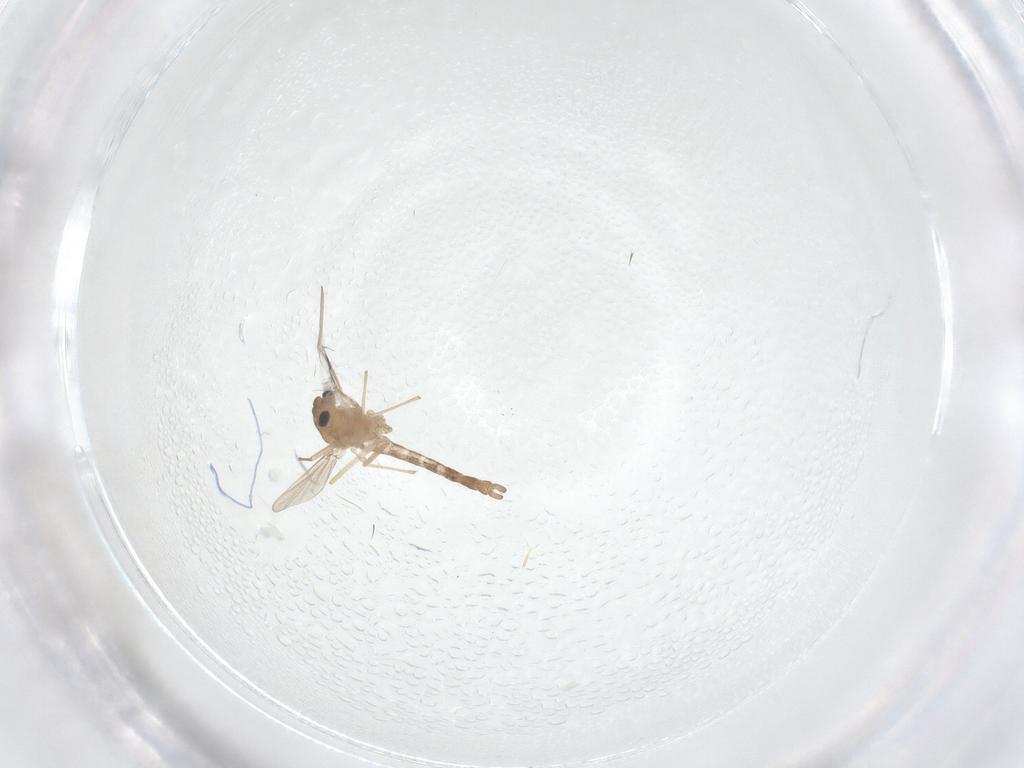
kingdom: Animalia
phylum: Arthropoda
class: Insecta
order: Diptera
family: Chironomidae
